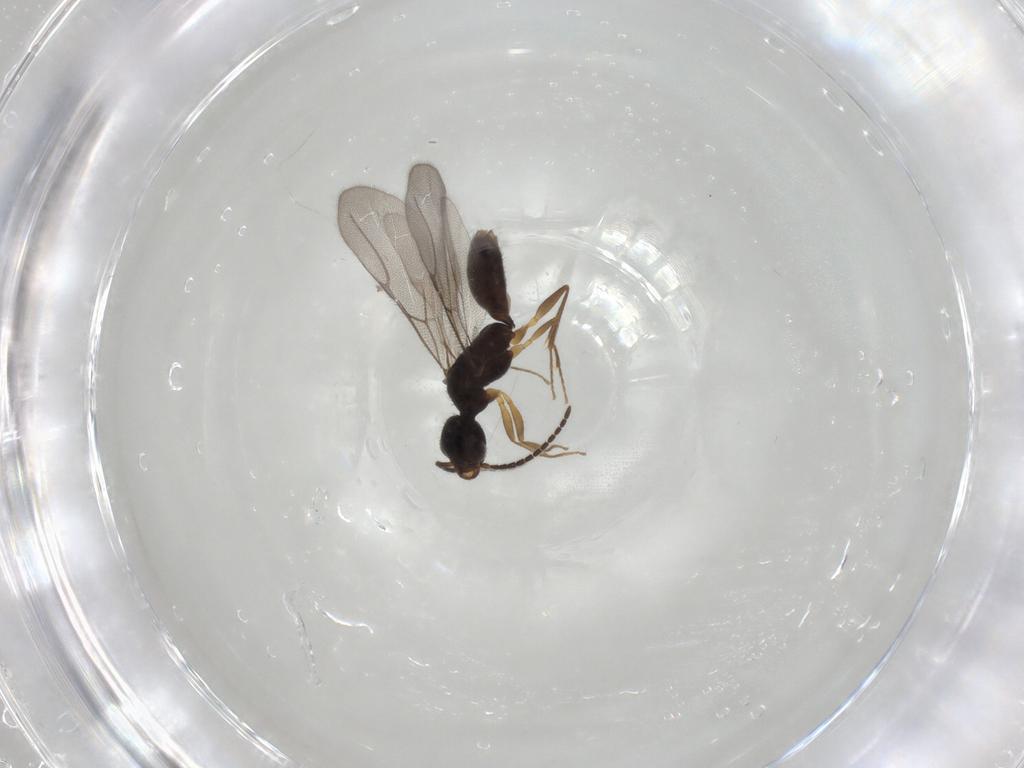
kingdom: Animalia
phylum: Arthropoda
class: Insecta
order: Hymenoptera
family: Bethylidae
